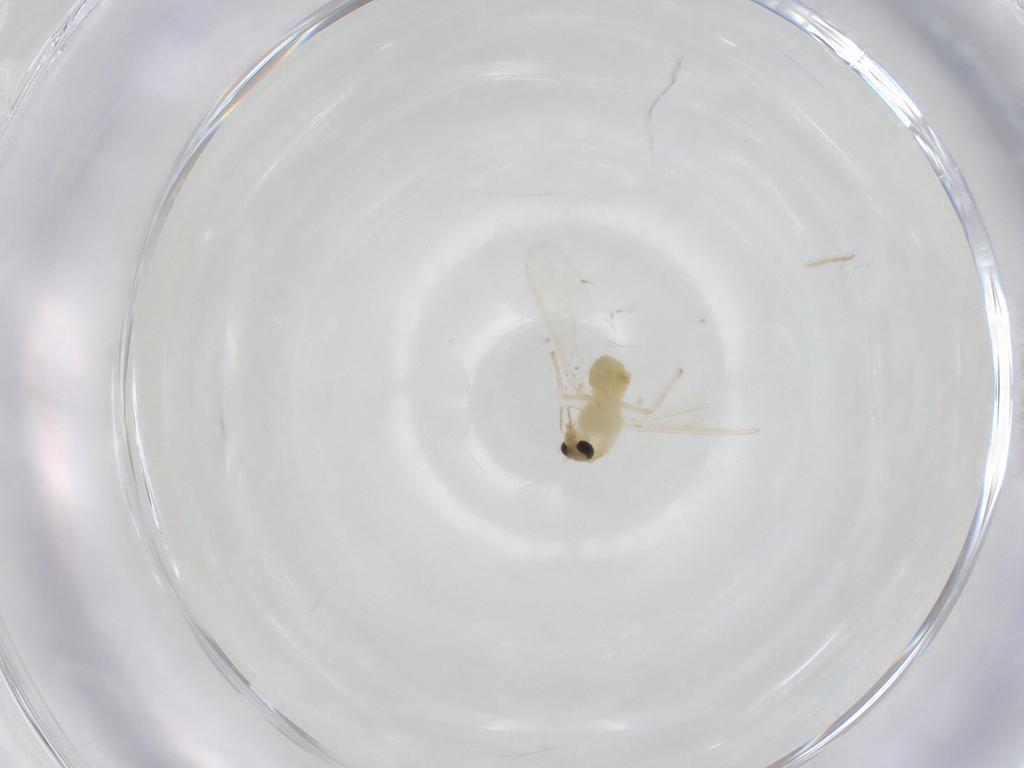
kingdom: Animalia
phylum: Arthropoda
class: Insecta
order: Diptera
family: Chironomidae
